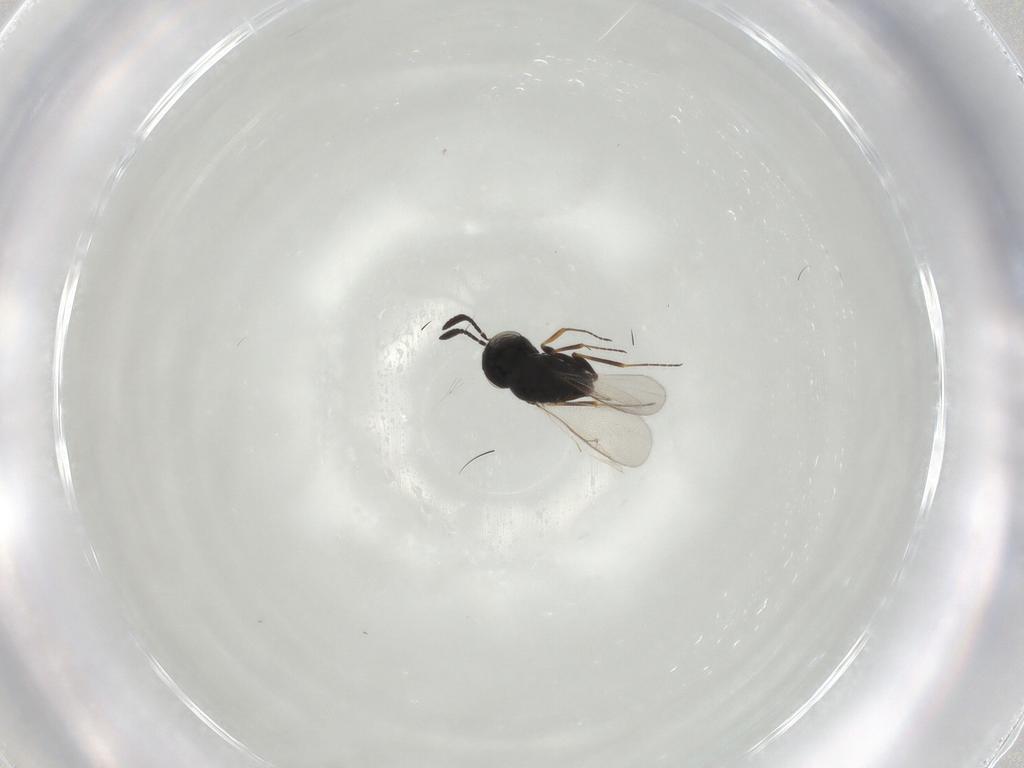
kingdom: Animalia
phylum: Arthropoda
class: Insecta
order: Hymenoptera
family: Scelionidae
